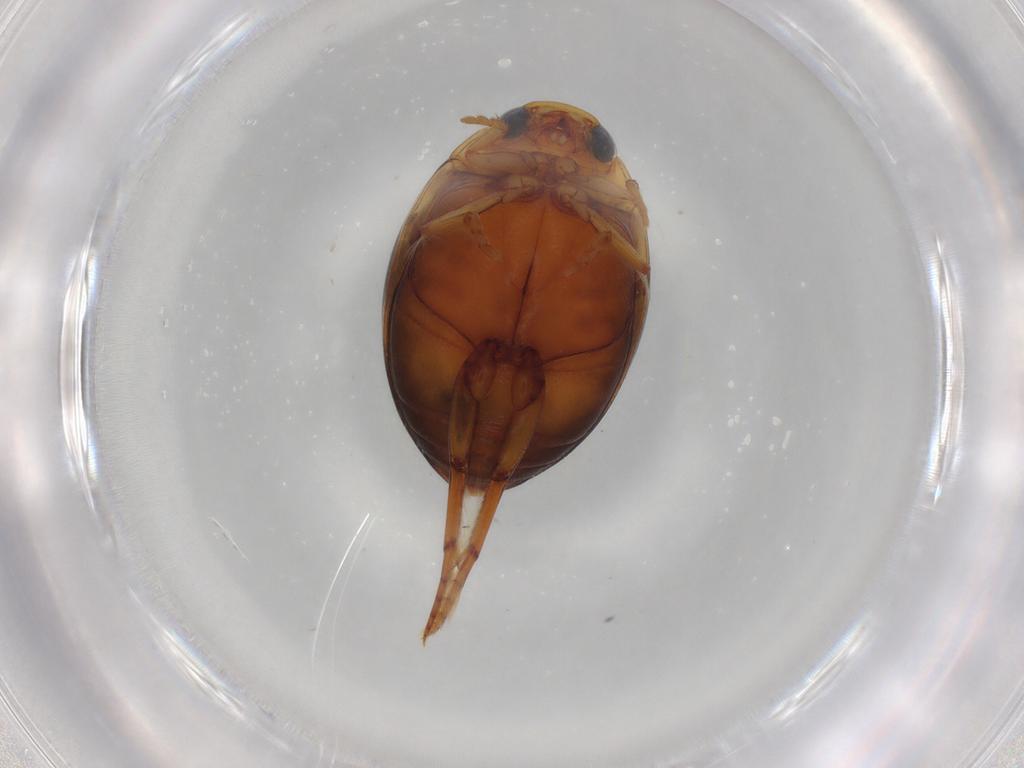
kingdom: Animalia
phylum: Arthropoda
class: Insecta
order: Coleoptera
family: Dytiscidae
